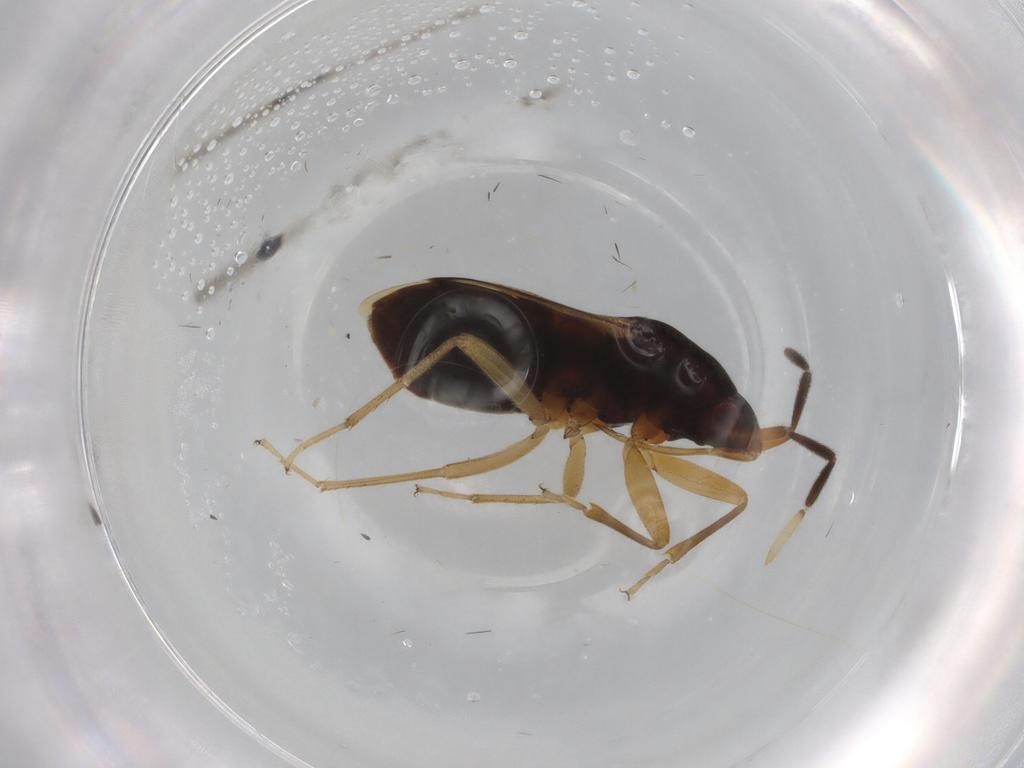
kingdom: Animalia
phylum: Arthropoda
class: Insecta
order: Hemiptera
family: Rhyparochromidae
